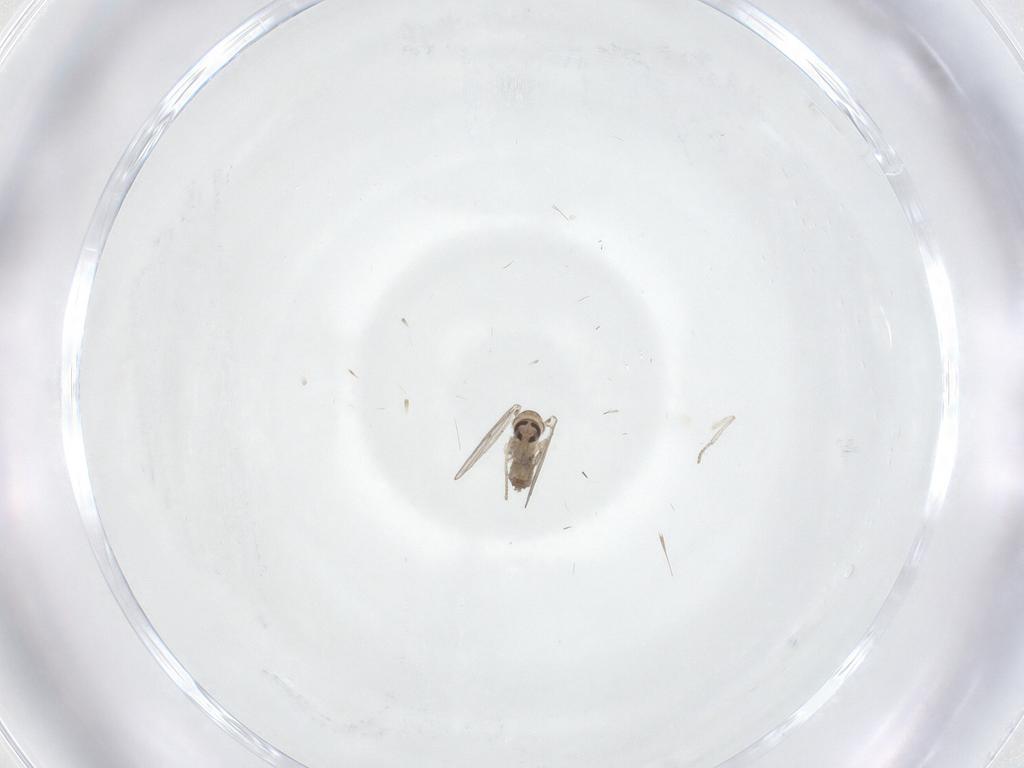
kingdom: Animalia
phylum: Arthropoda
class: Insecta
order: Diptera
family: Psychodidae
